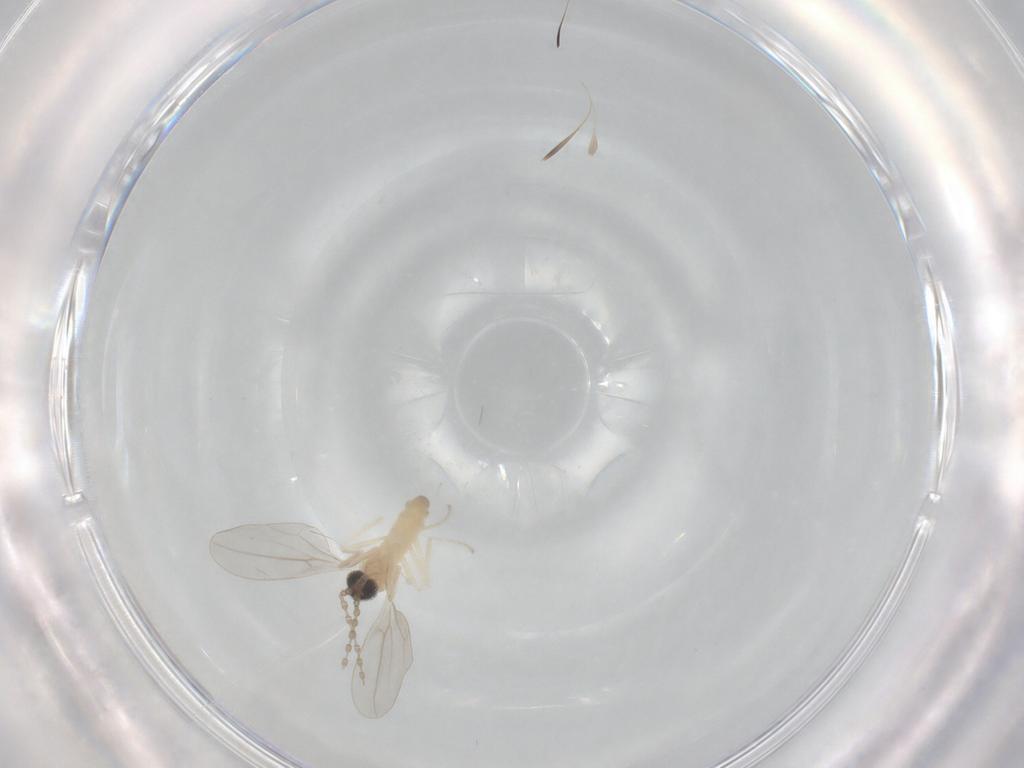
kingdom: Animalia
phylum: Arthropoda
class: Insecta
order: Diptera
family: Cecidomyiidae
